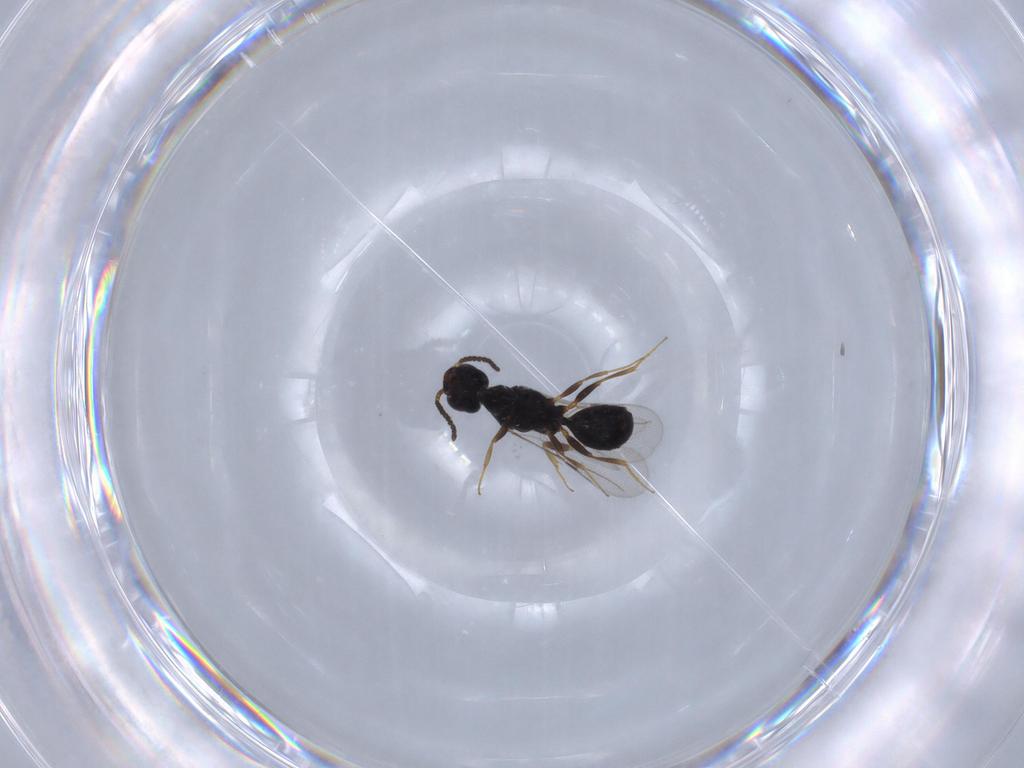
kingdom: Animalia
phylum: Arthropoda
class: Insecta
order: Hymenoptera
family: Bethylidae
